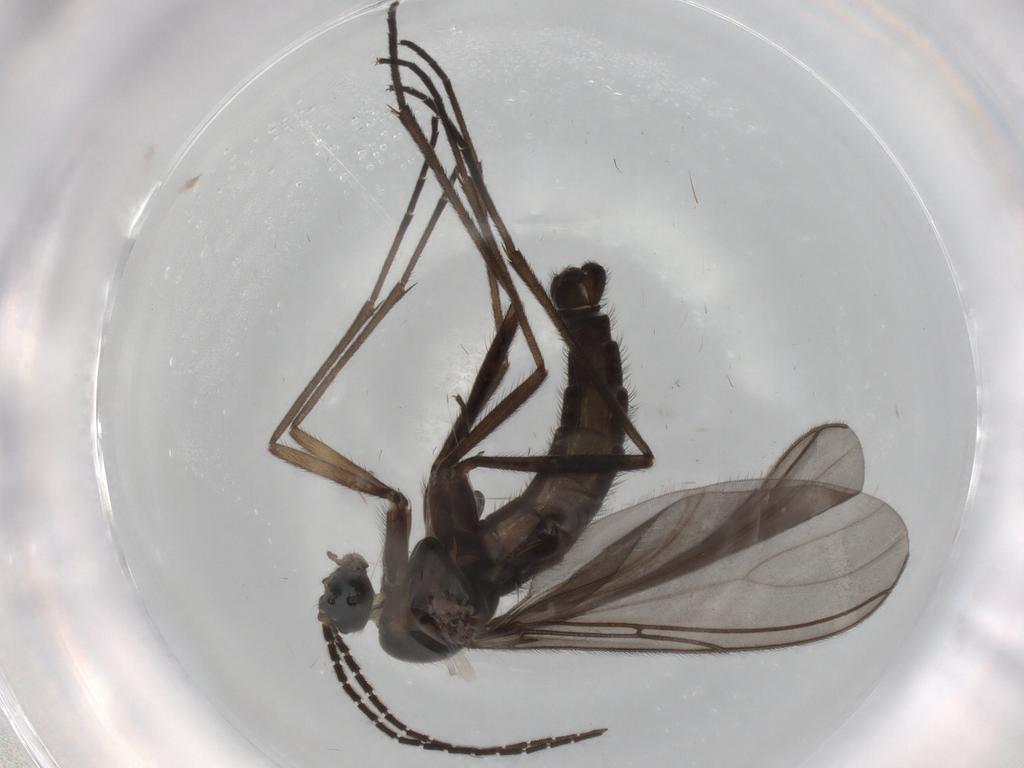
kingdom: Animalia
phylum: Arthropoda
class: Insecta
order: Diptera
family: Sciaridae
